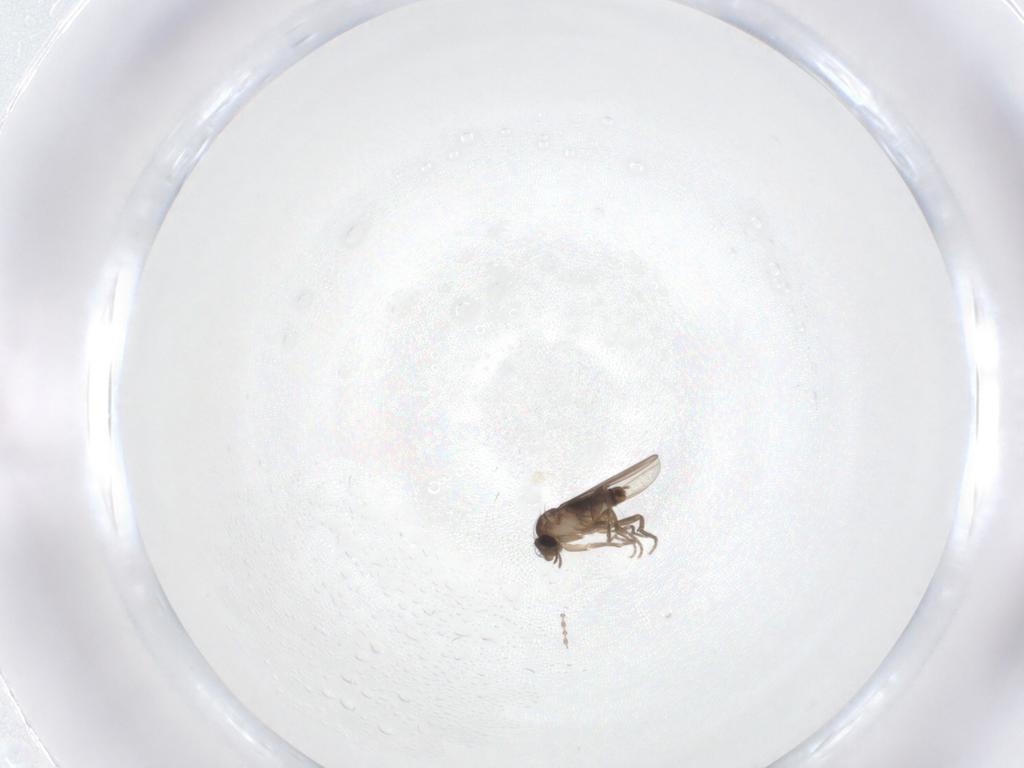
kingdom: Animalia
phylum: Arthropoda
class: Insecta
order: Diptera
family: Cecidomyiidae
